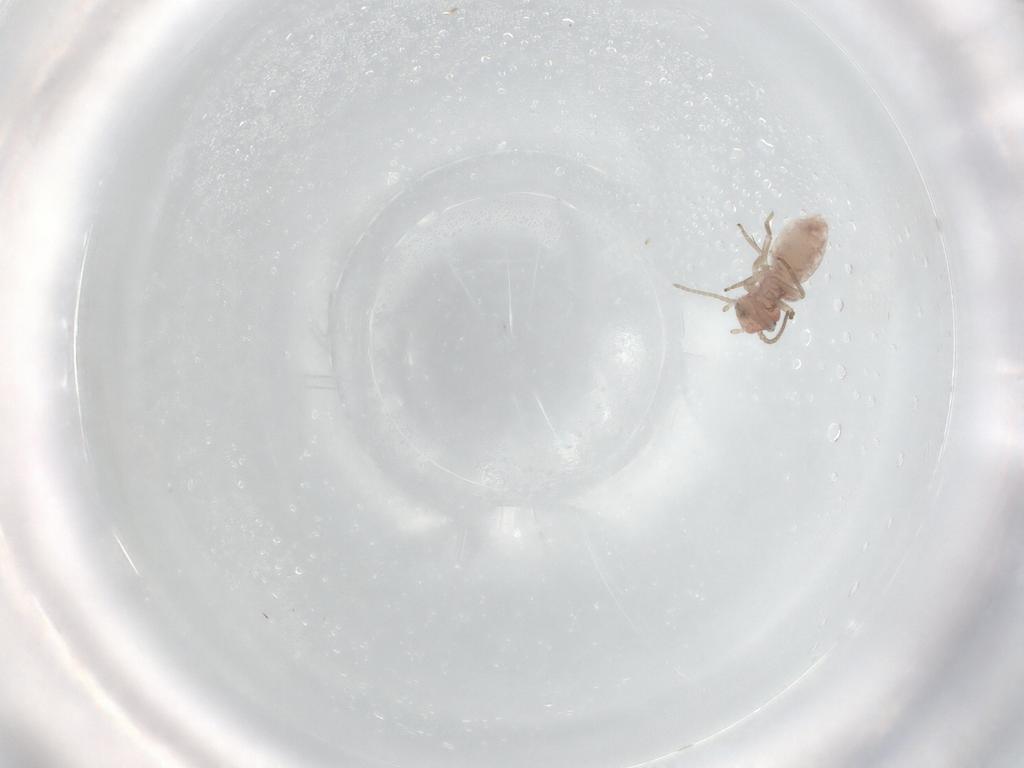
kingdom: Animalia
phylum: Arthropoda
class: Insecta
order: Psocodea
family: Caeciliusidae
